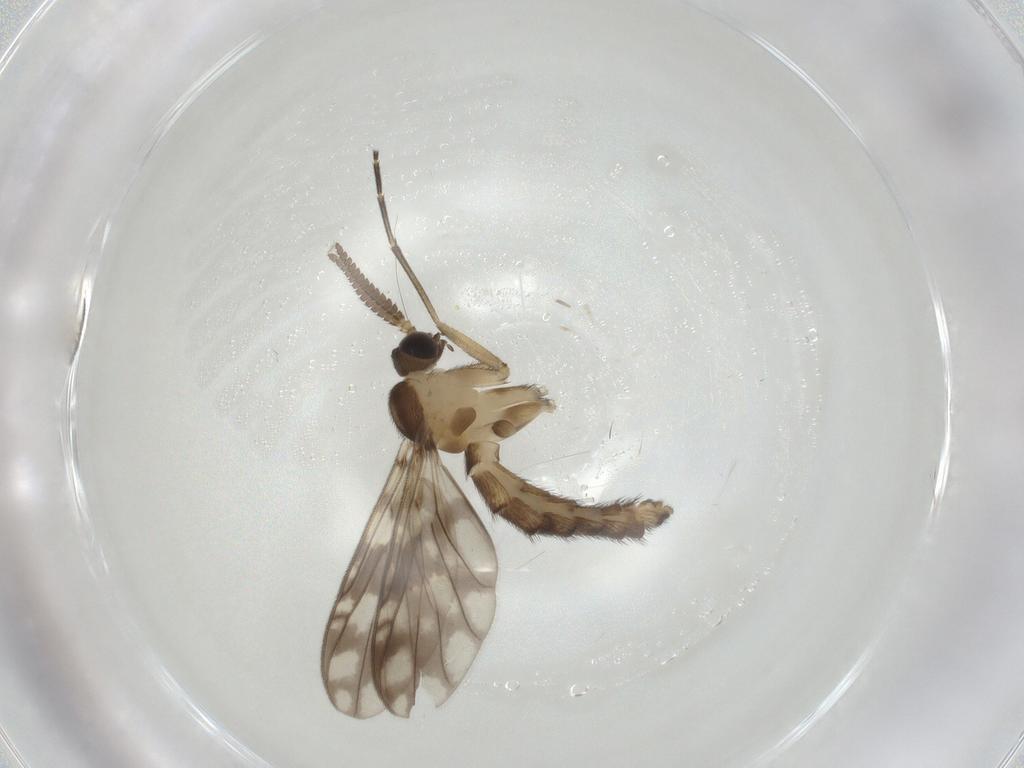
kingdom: Animalia
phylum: Arthropoda
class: Insecta
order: Diptera
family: Keroplatidae
